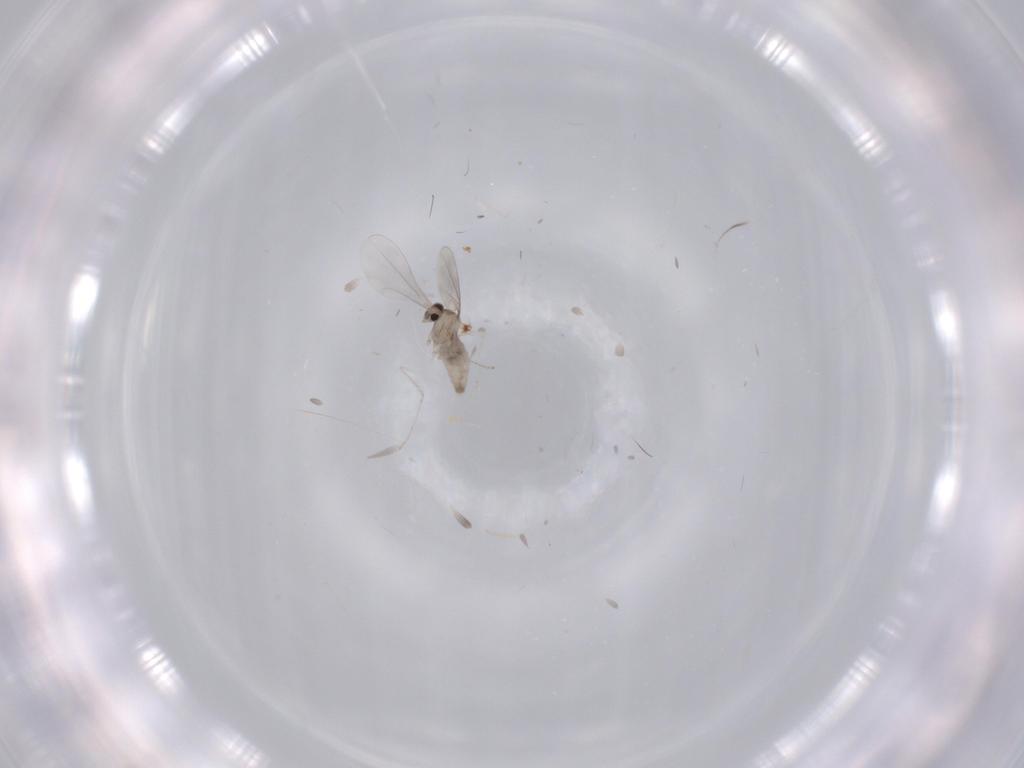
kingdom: Animalia
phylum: Arthropoda
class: Insecta
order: Diptera
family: Cecidomyiidae
